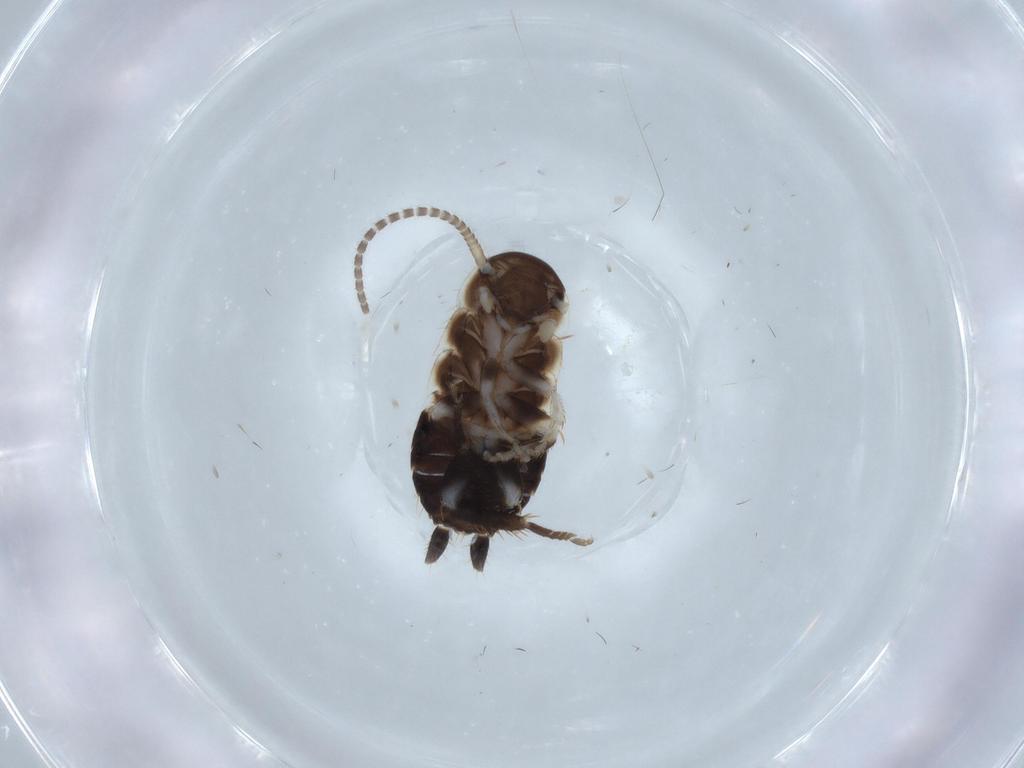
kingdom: Animalia
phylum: Arthropoda
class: Insecta
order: Blattodea
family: Ectobiidae
